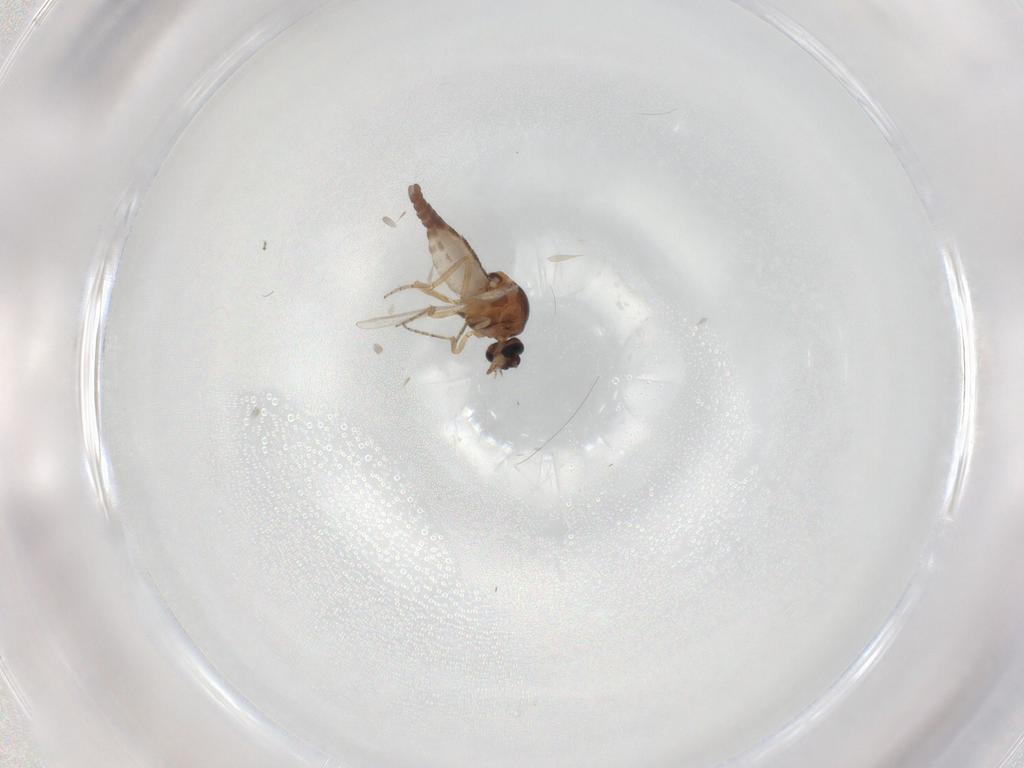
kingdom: Animalia
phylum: Arthropoda
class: Insecta
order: Diptera
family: Ceratopogonidae
